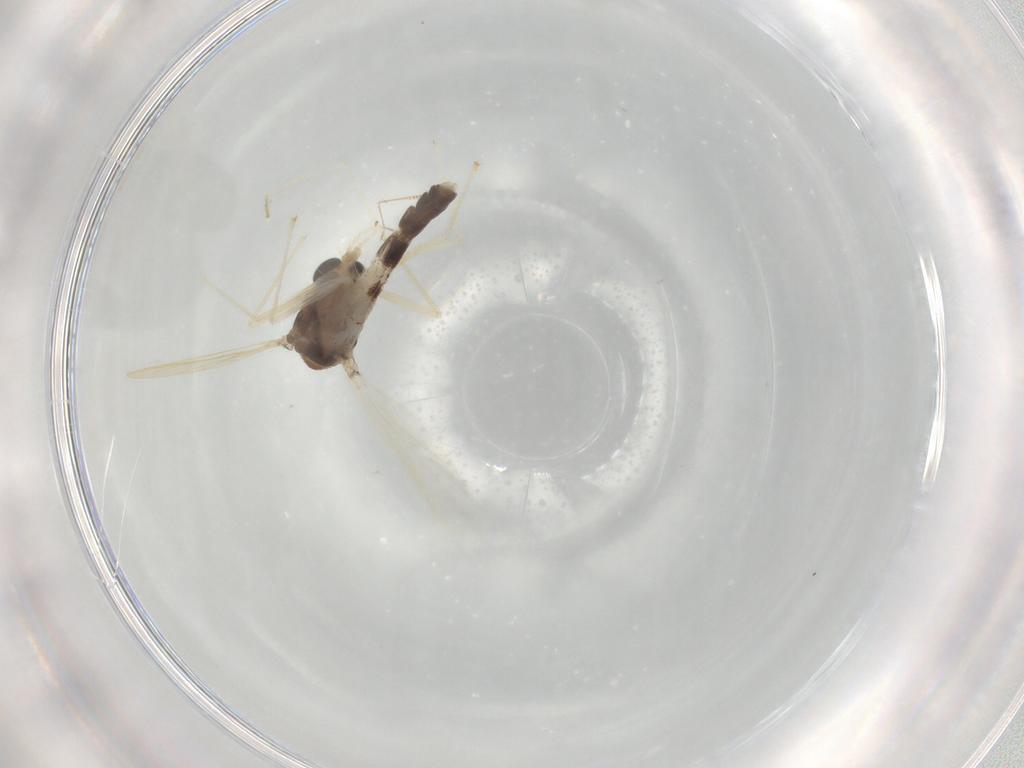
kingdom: Animalia
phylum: Arthropoda
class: Insecta
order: Diptera
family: Chironomidae
